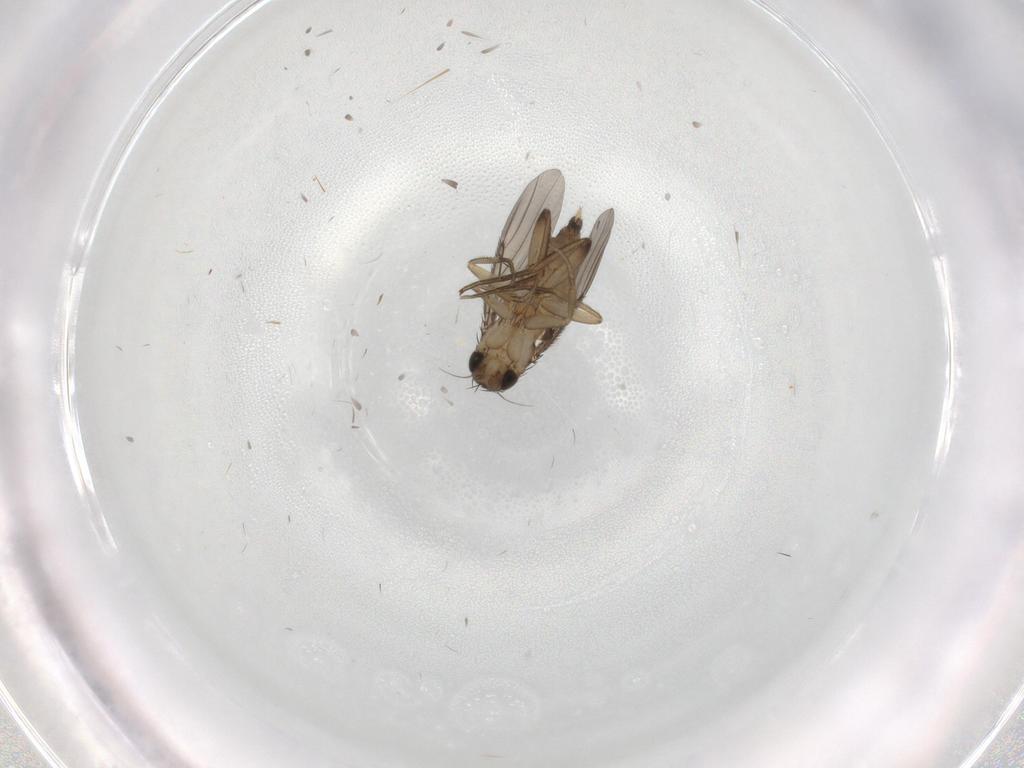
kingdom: Animalia
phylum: Arthropoda
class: Insecta
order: Diptera
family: Phoridae
